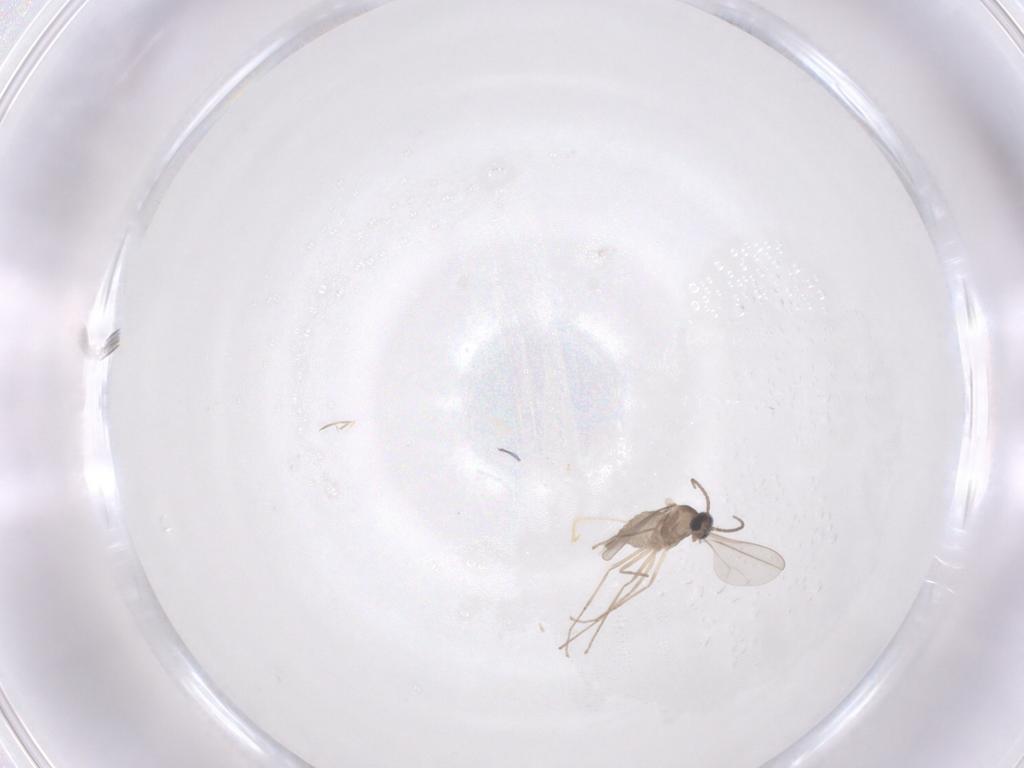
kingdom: Animalia
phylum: Arthropoda
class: Insecta
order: Diptera
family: Cecidomyiidae
